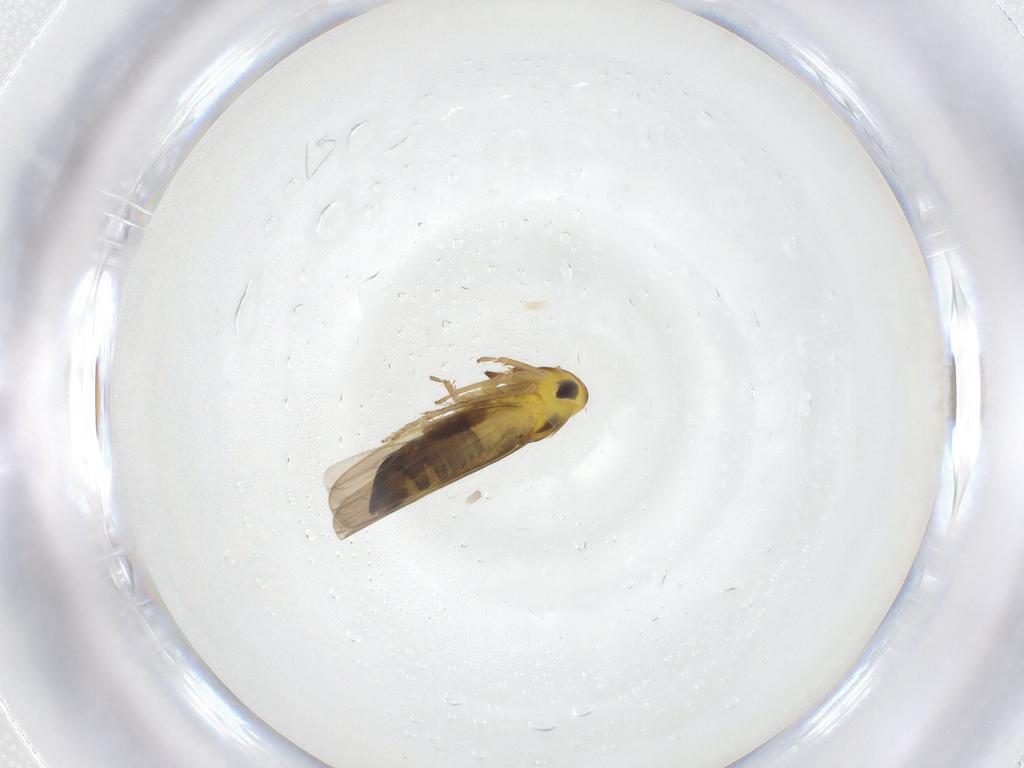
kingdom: Animalia
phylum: Arthropoda
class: Insecta
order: Hemiptera
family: Cicadellidae
